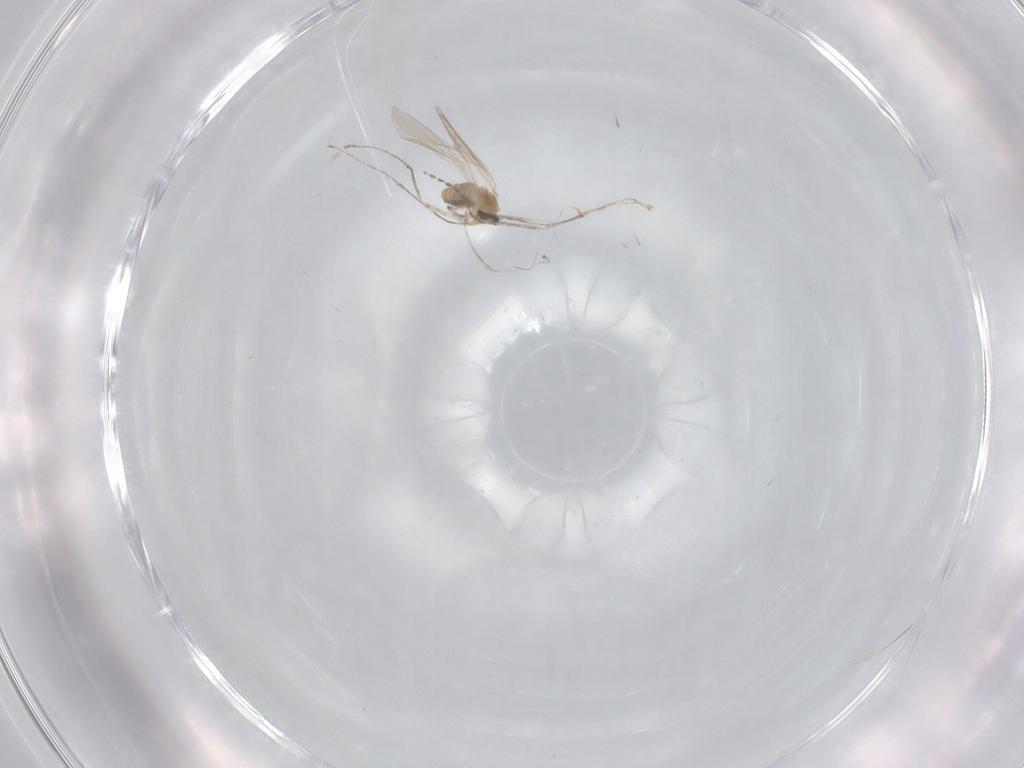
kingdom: Animalia
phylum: Arthropoda
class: Insecta
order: Diptera
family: Cecidomyiidae
